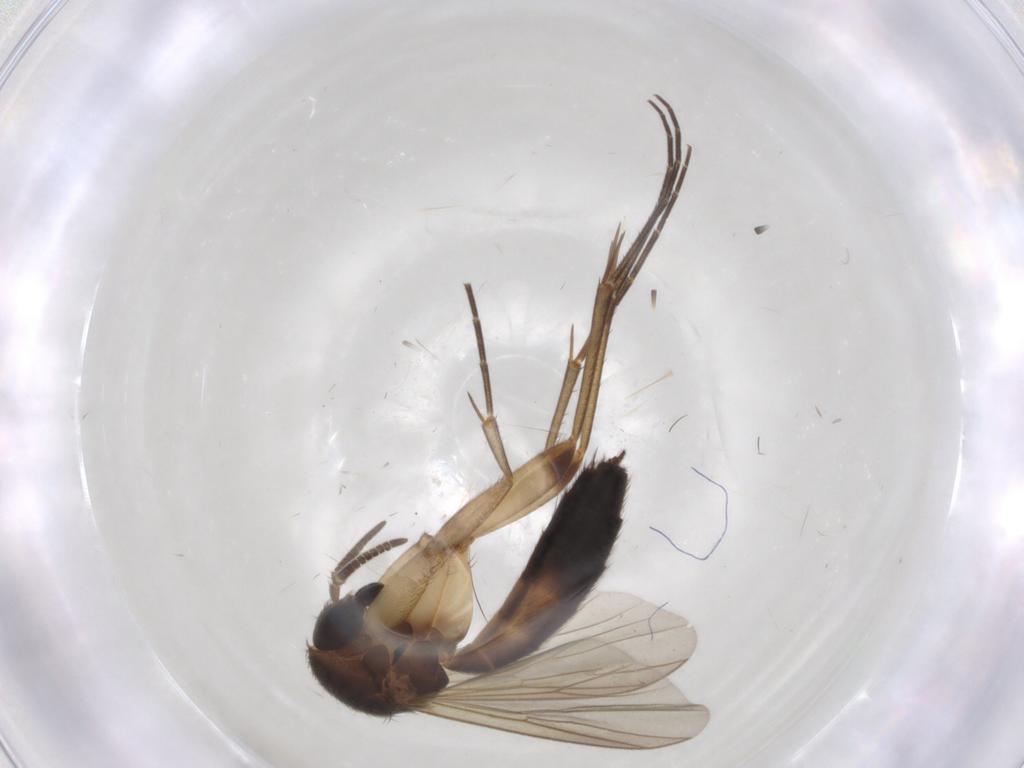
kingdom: Animalia
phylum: Arthropoda
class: Insecta
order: Diptera
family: Mycetophilidae
